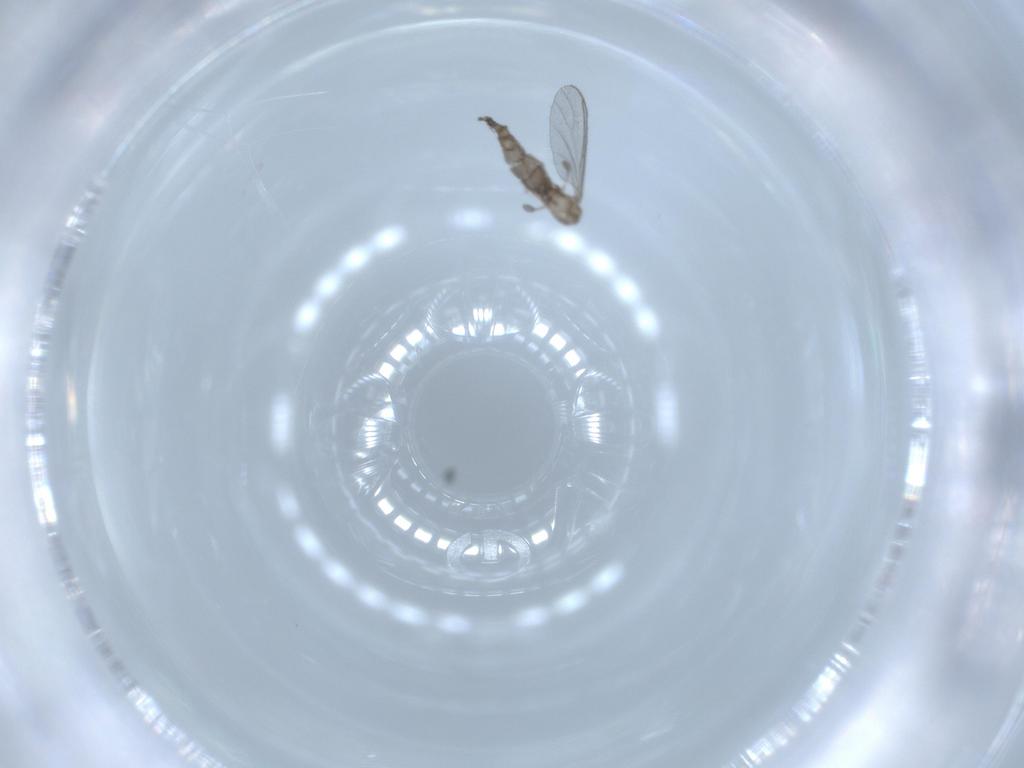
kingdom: Animalia
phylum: Arthropoda
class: Insecta
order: Diptera
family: Sciaridae
